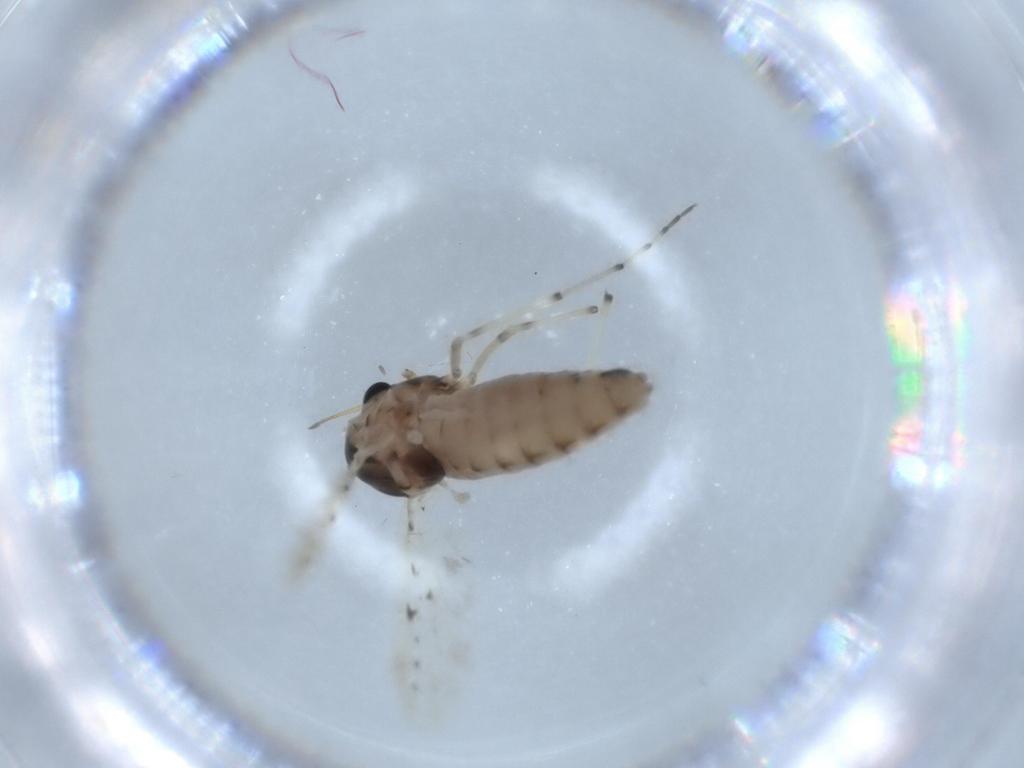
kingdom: Animalia
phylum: Arthropoda
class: Insecta
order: Diptera
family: Chironomidae
